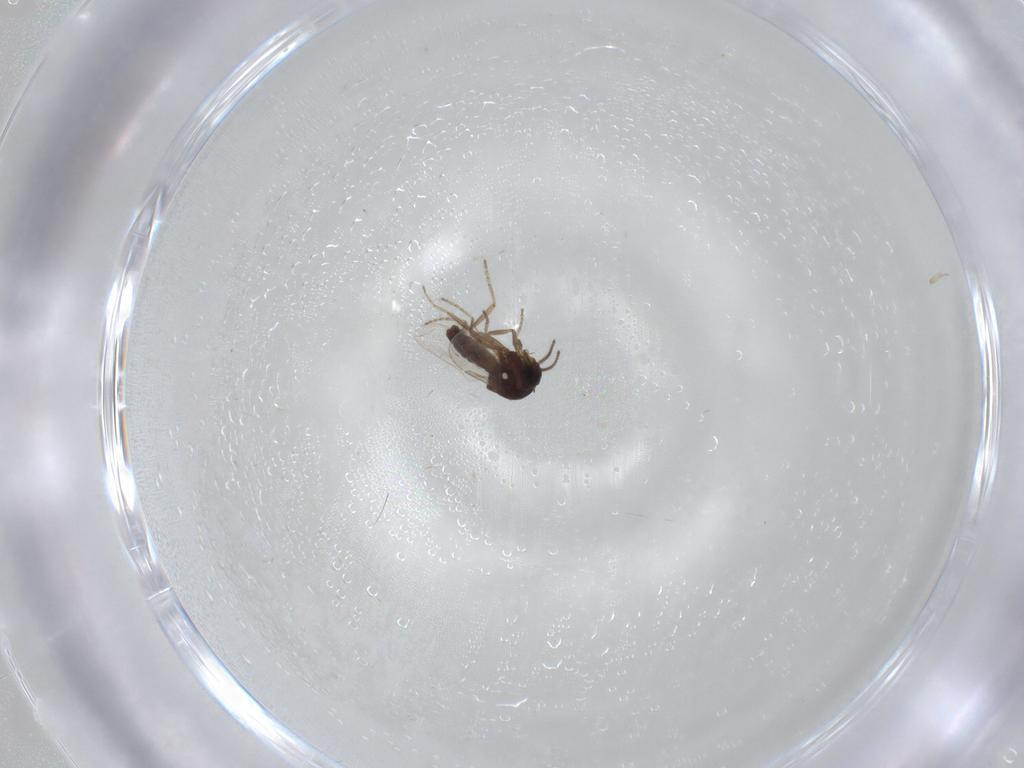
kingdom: Animalia
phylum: Arthropoda
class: Insecta
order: Diptera
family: Ceratopogonidae
